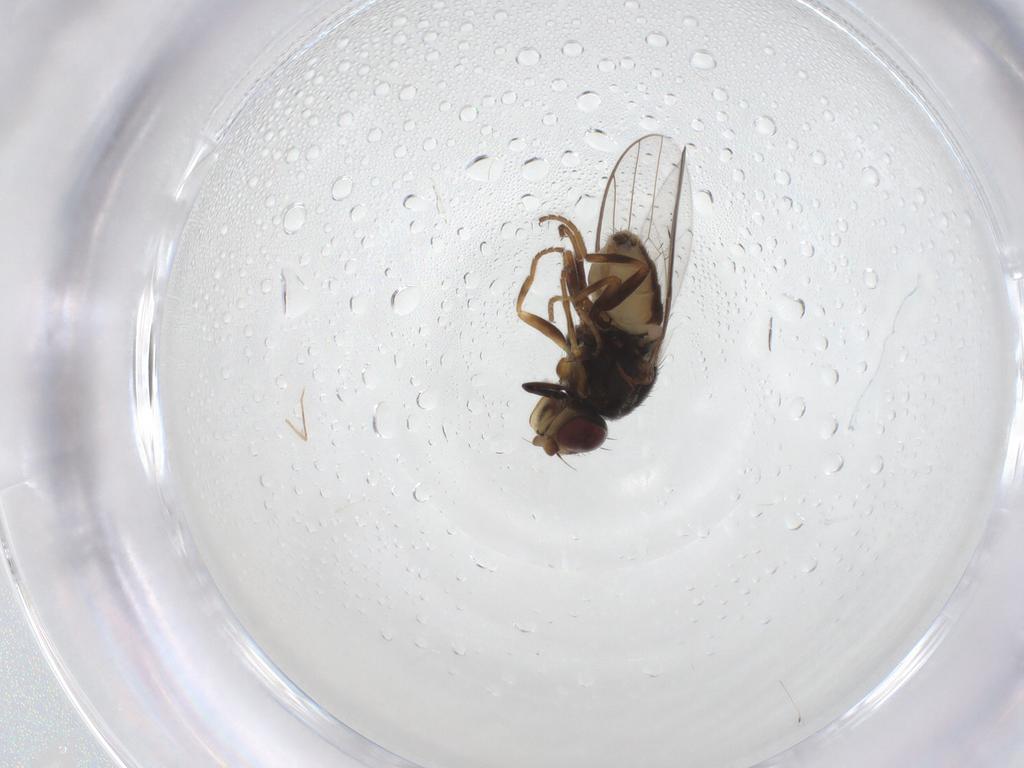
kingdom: Animalia
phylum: Arthropoda
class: Insecta
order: Diptera
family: Chloropidae
